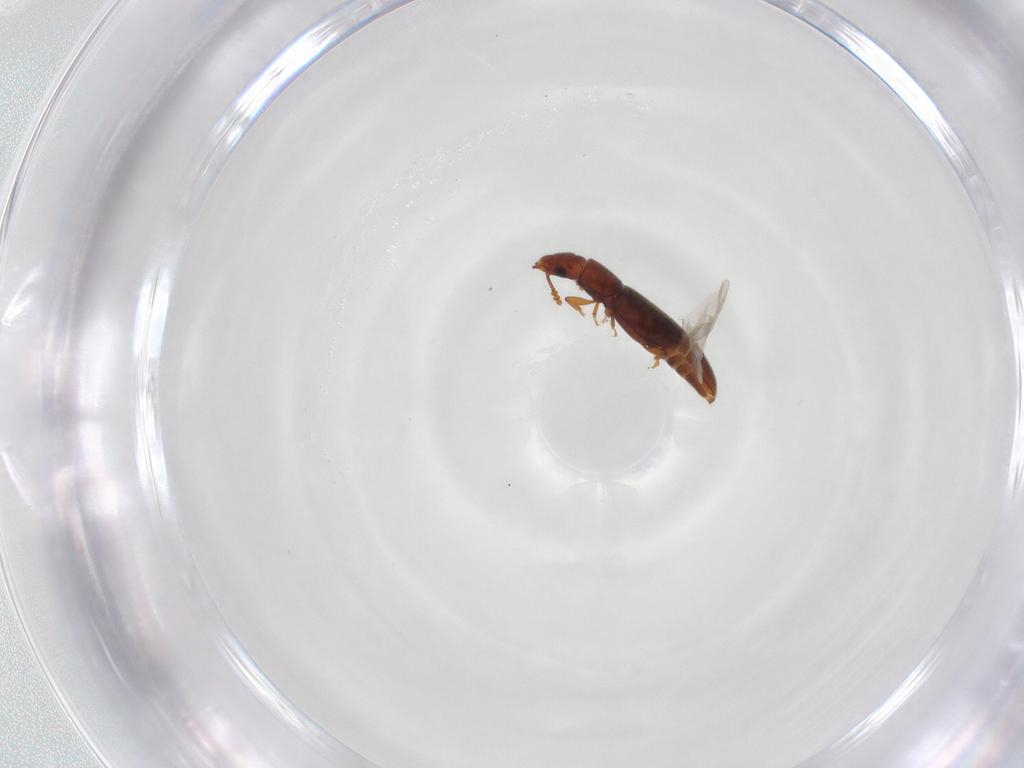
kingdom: Animalia
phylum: Arthropoda
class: Insecta
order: Coleoptera
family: Smicripidae
